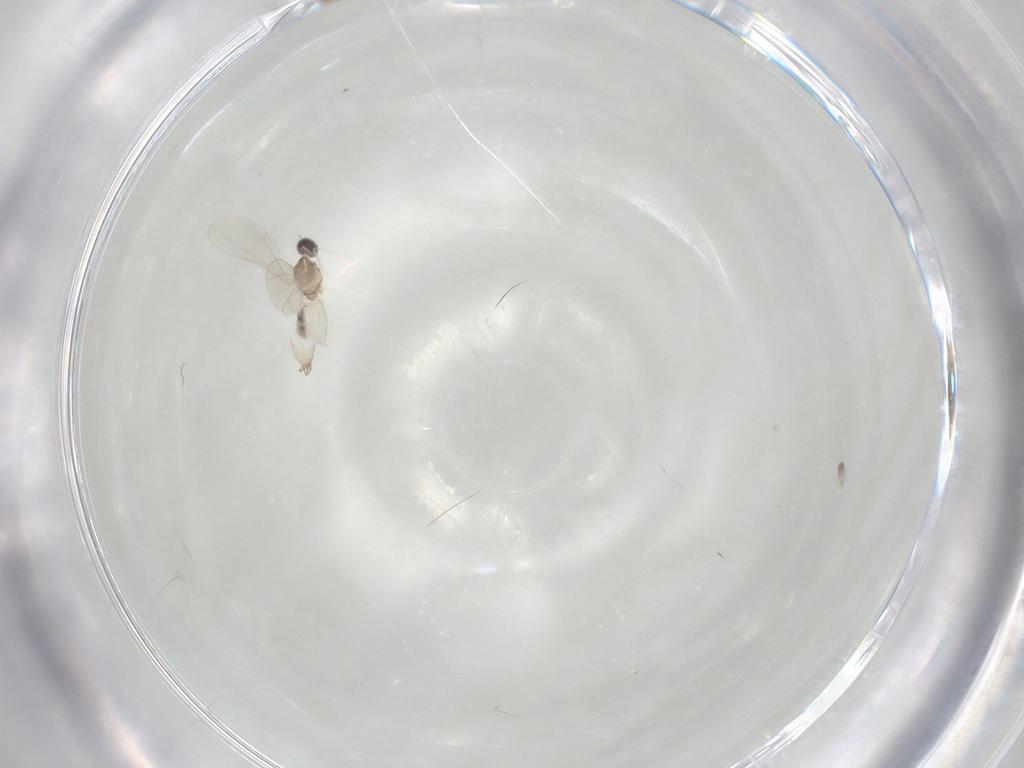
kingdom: Animalia
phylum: Arthropoda
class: Insecta
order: Diptera
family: Cecidomyiidae
